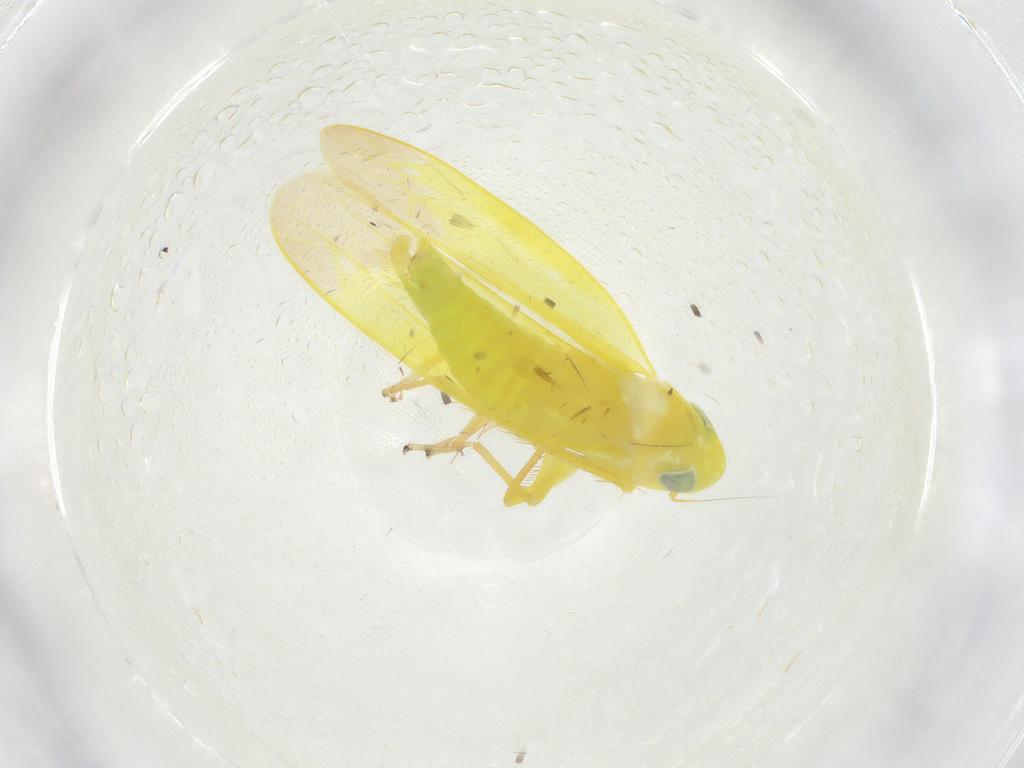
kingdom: Animalia
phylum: Arthropoda
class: Insecta
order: Hemiptera
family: Cicadellidae
